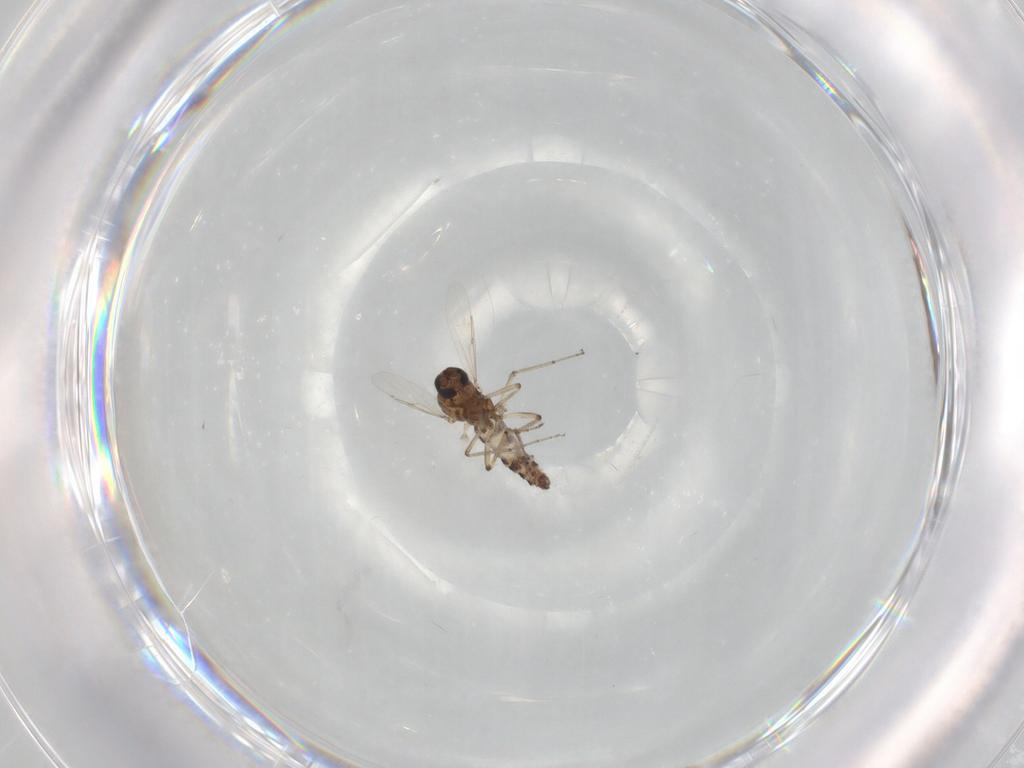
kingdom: Animalia
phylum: Arthropoda
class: Insecta
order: Diptera
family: Ceratopogonidae
